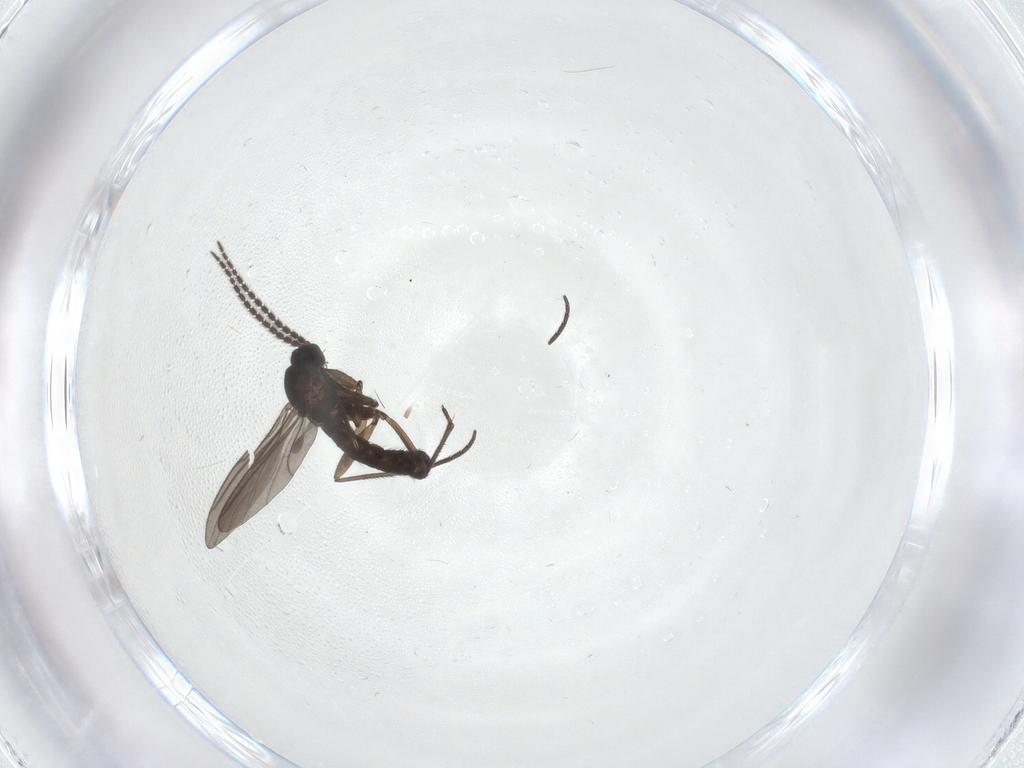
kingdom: Animalia
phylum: Arthropoda
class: Insecta
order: Diptera
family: Sciaridae
